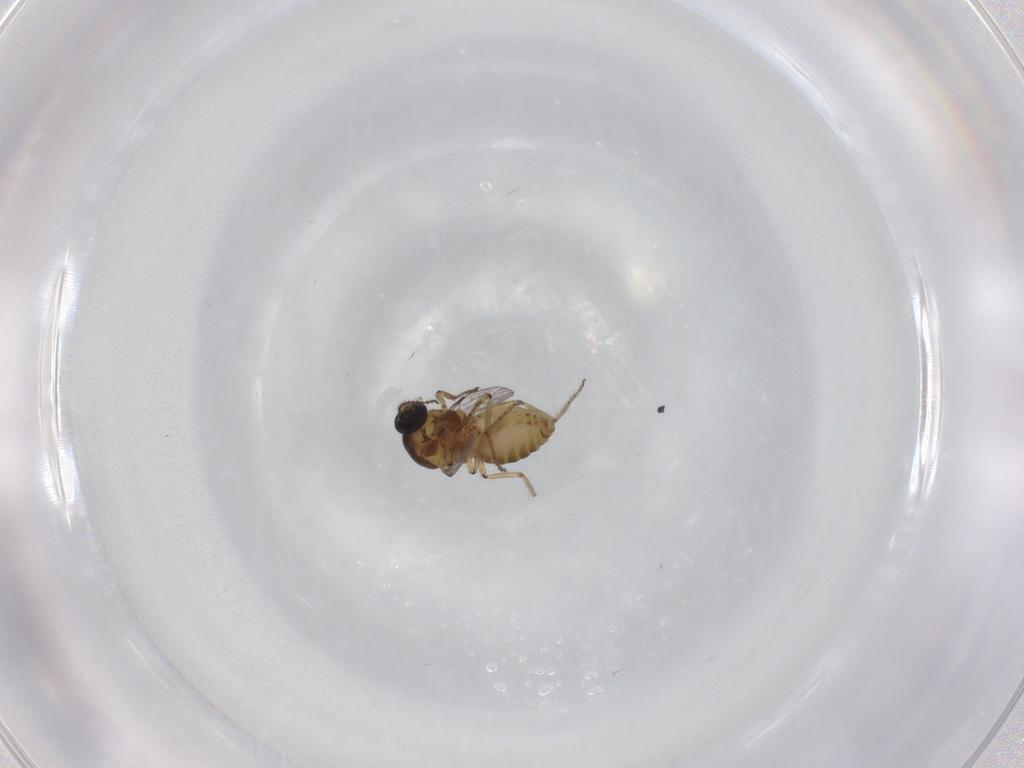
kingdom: Animalia
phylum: Arthropoda
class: Insecta
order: Diptera
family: Ceratopogonidae
